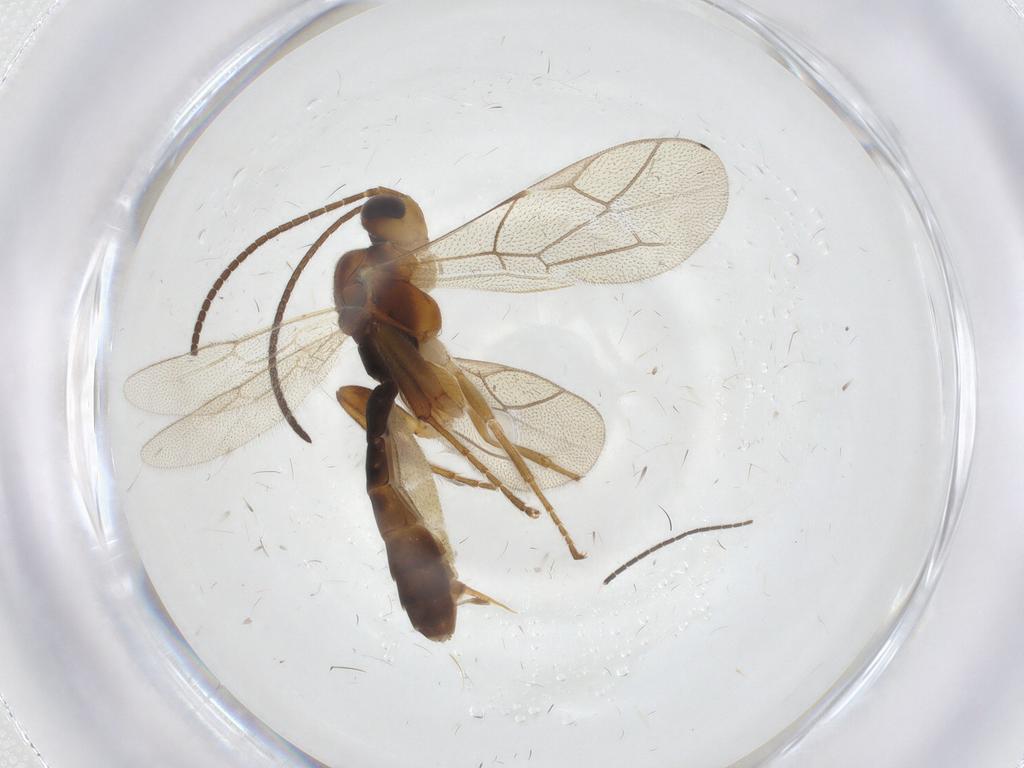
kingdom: Animalia
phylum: Arthropoda
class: Insecta
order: Hymenoptera
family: Ichneumonidae
